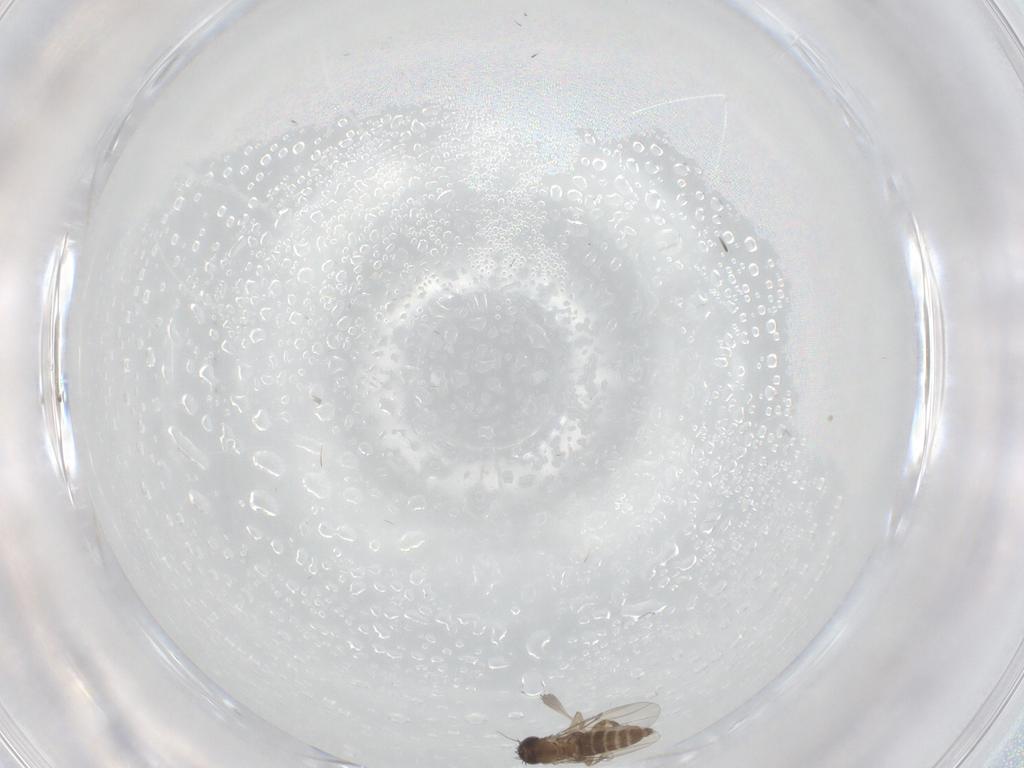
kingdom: Animalia
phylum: Arthropoda
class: Insecta
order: Diptera
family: Phoridae
